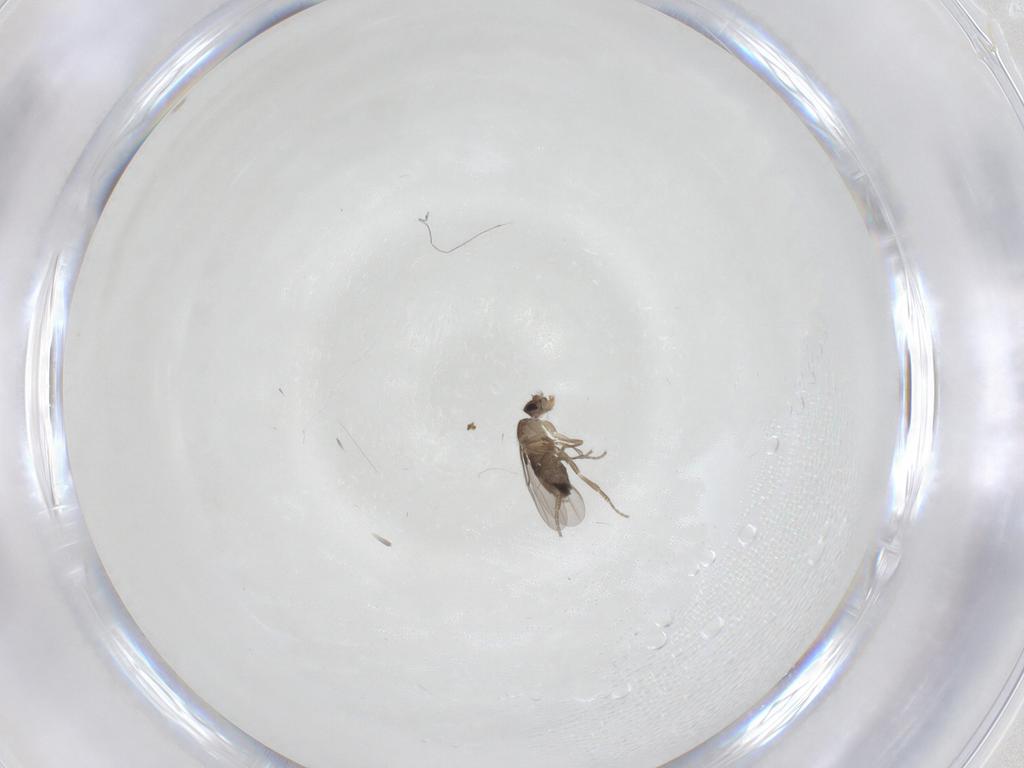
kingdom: Animalia
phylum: Arthropoda
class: Insecta
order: Diptera
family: Phoridae
